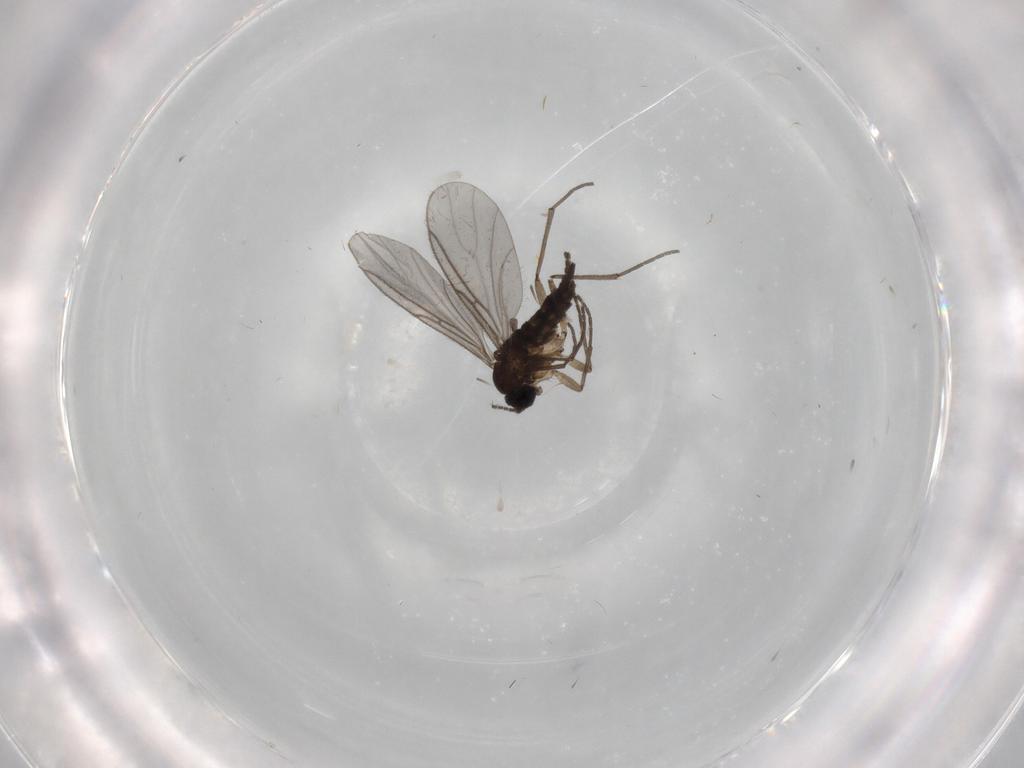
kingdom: Animalia
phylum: Arthropoda
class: Insecta
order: Diptera
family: Sciaridae
